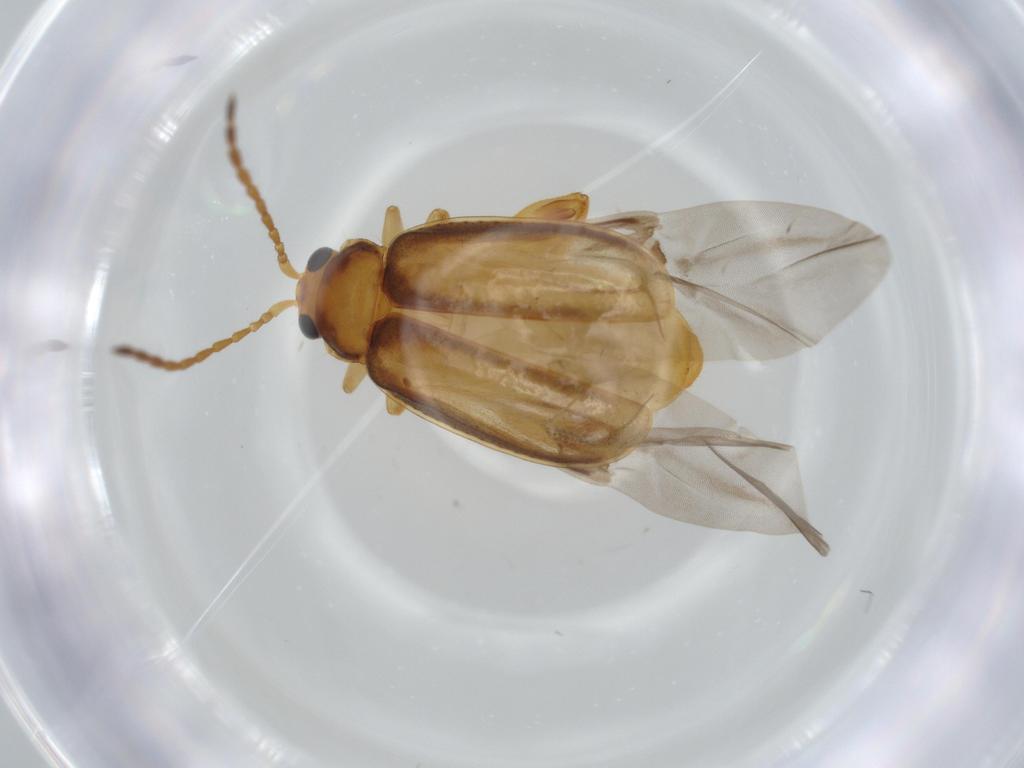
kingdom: Animalia
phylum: Arthropoda
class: Insecta
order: Coleoptera
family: Chrysomelidae
